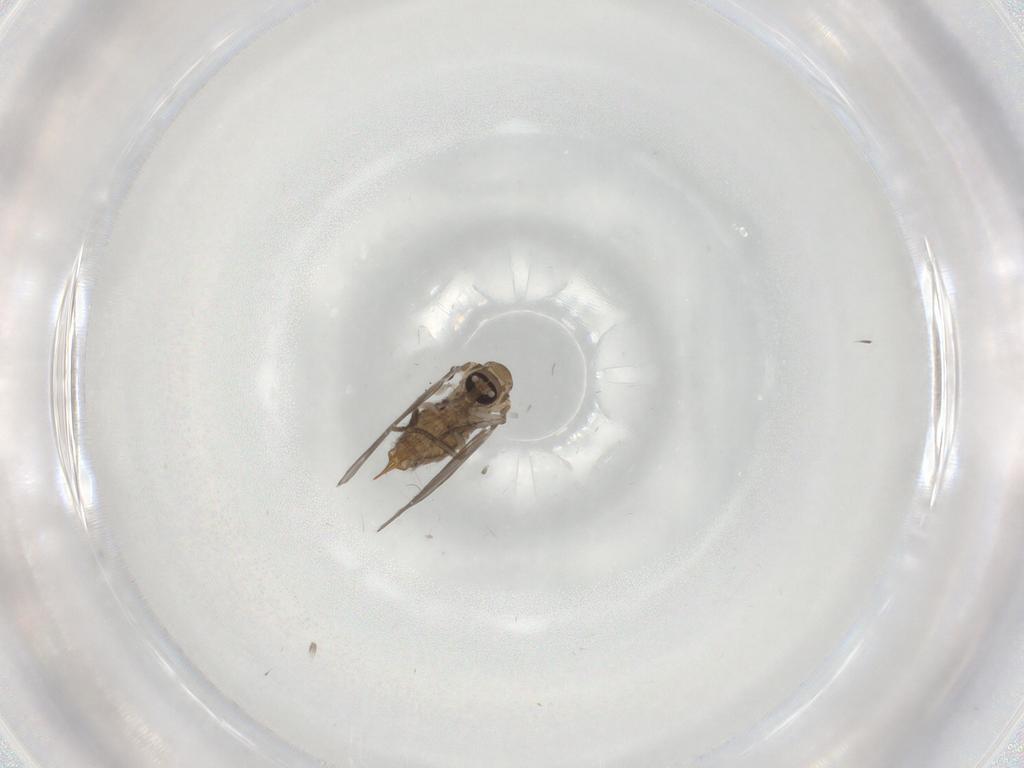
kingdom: Animalia
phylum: Arthropoda
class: Insecta
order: Diptera
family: Psychodidae
